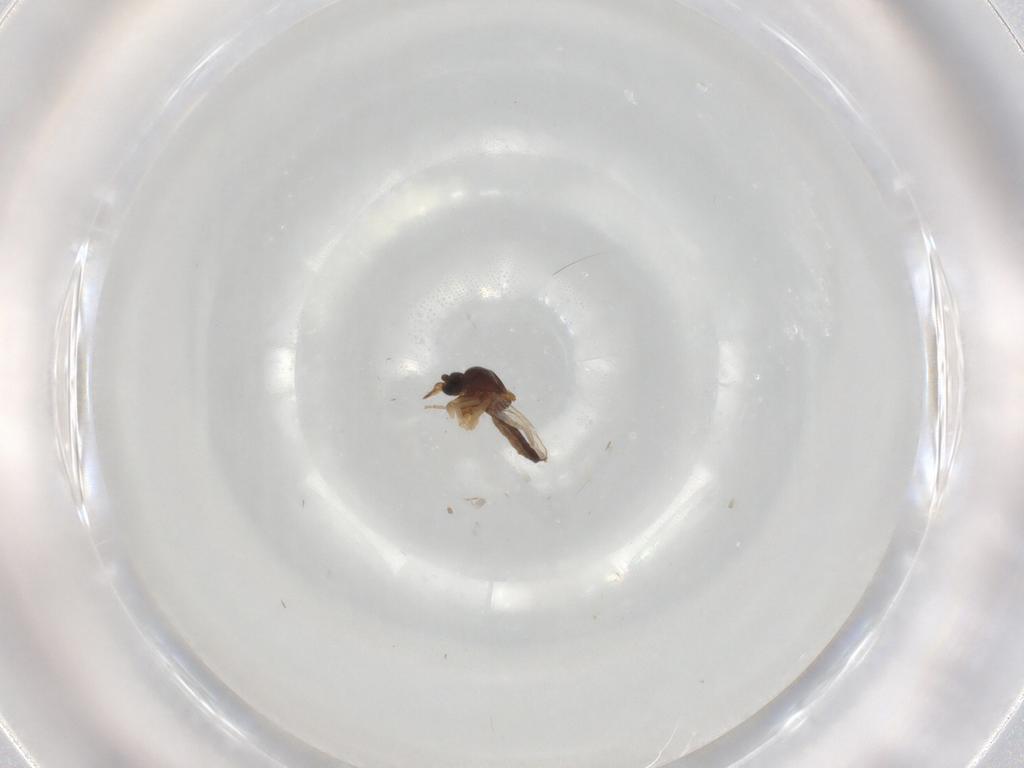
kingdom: Animalia
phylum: Arthropoda
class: Insecta
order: Diptera
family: Ceratopogonidae
